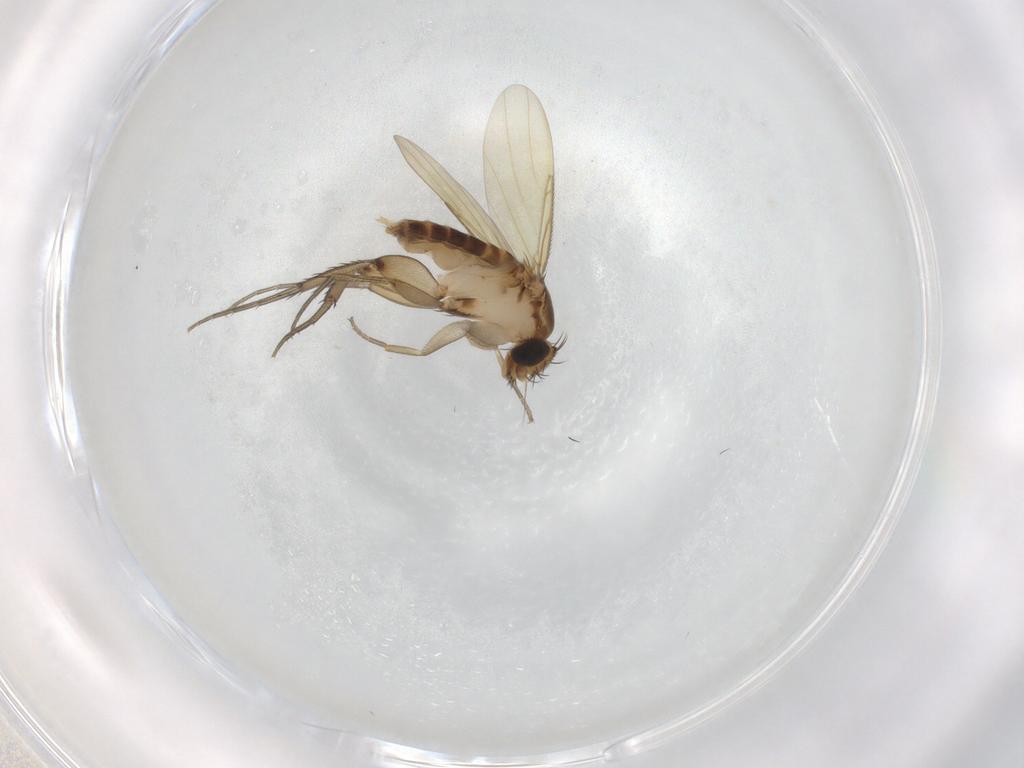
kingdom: Animalia
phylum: Arthropoda
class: Insecta
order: Diptera
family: Phoridae
